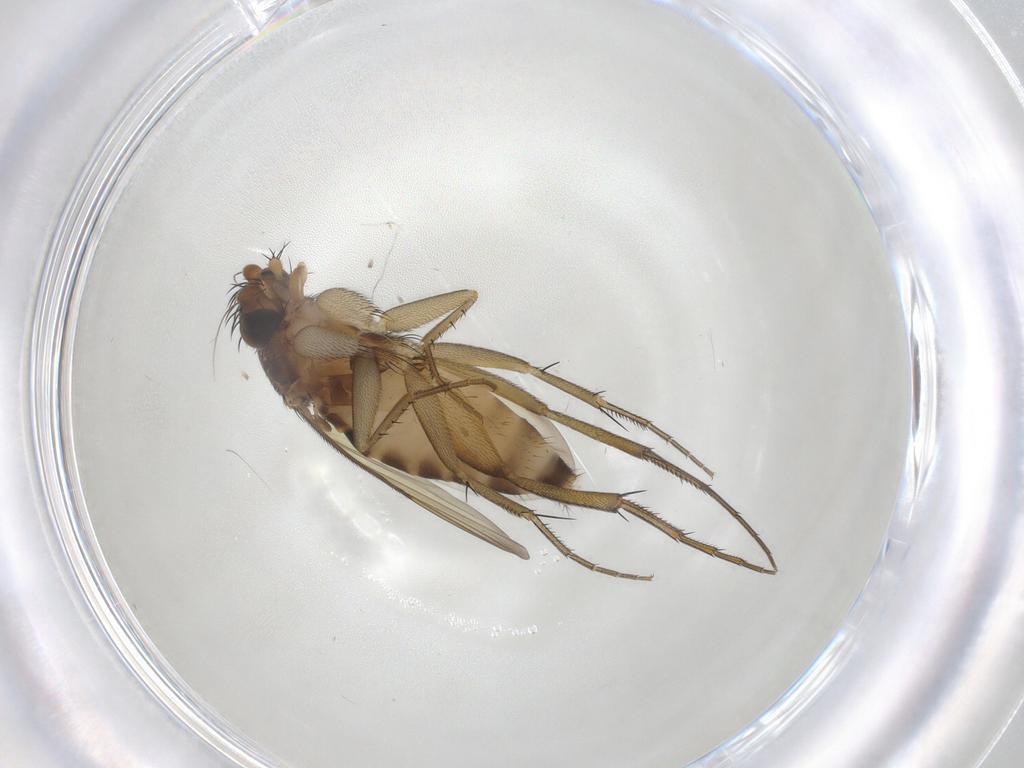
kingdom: Animalia
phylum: Arthropoda
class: Insecta
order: Diptera
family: Phoridae
